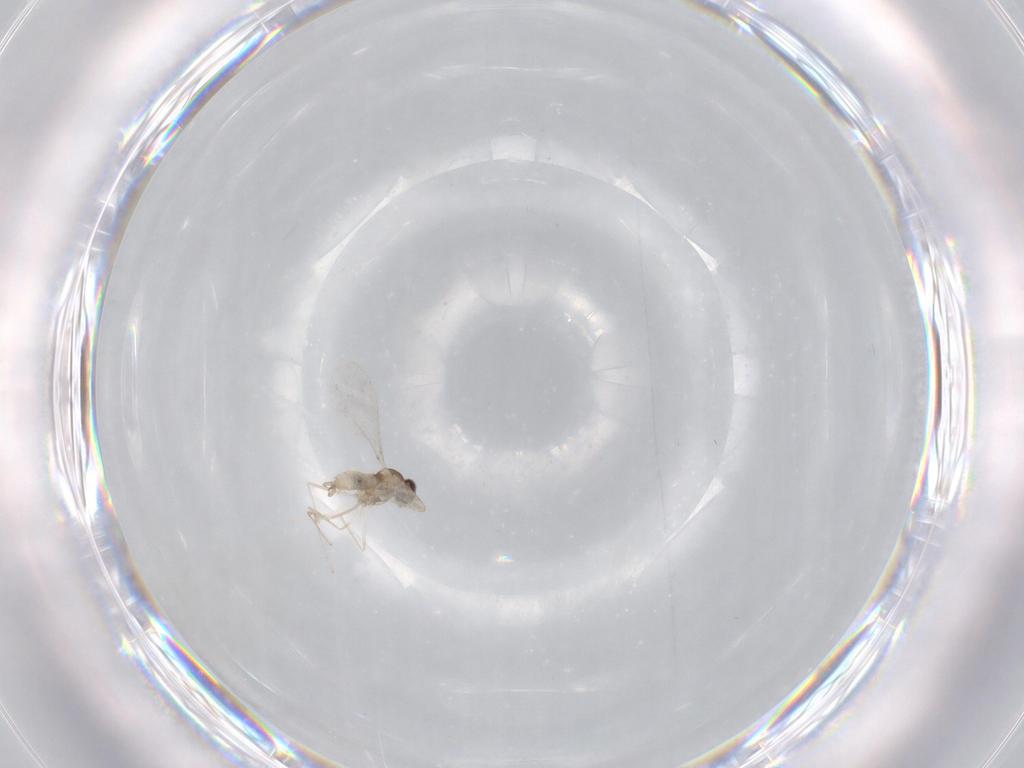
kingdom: Animalia
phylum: Arthropoda
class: Insecta
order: Diptera
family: Cecidomyiidae
